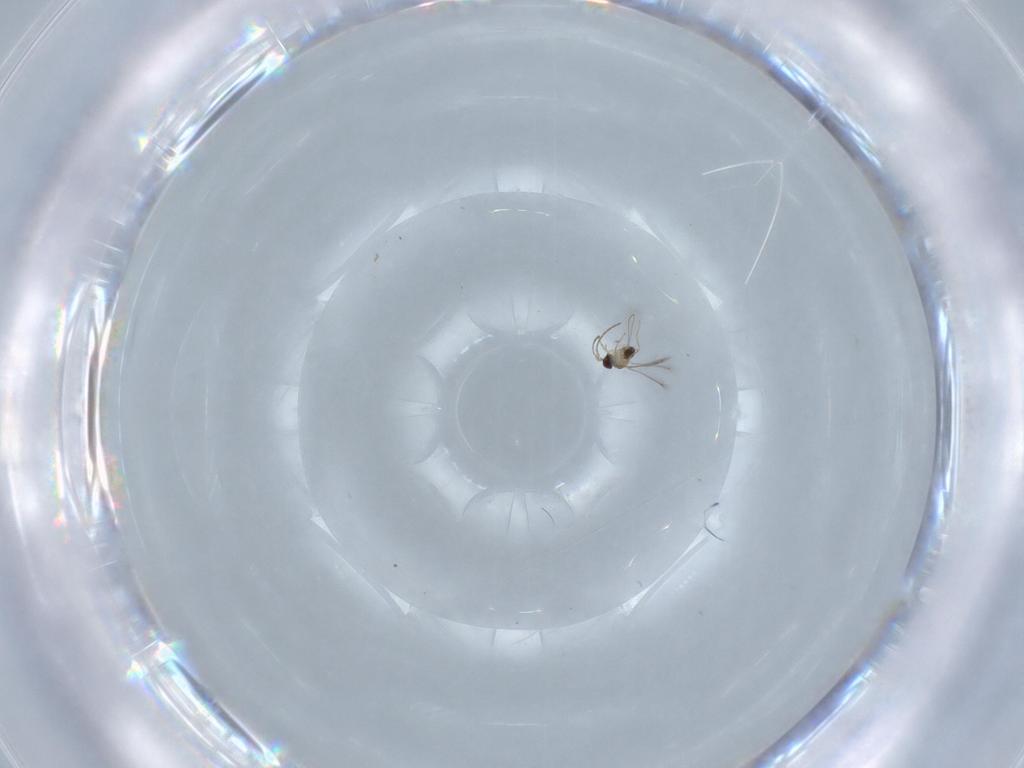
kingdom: Animalia
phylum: Arthropoda
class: Insecta
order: Hymenoptera
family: Mymaridae
